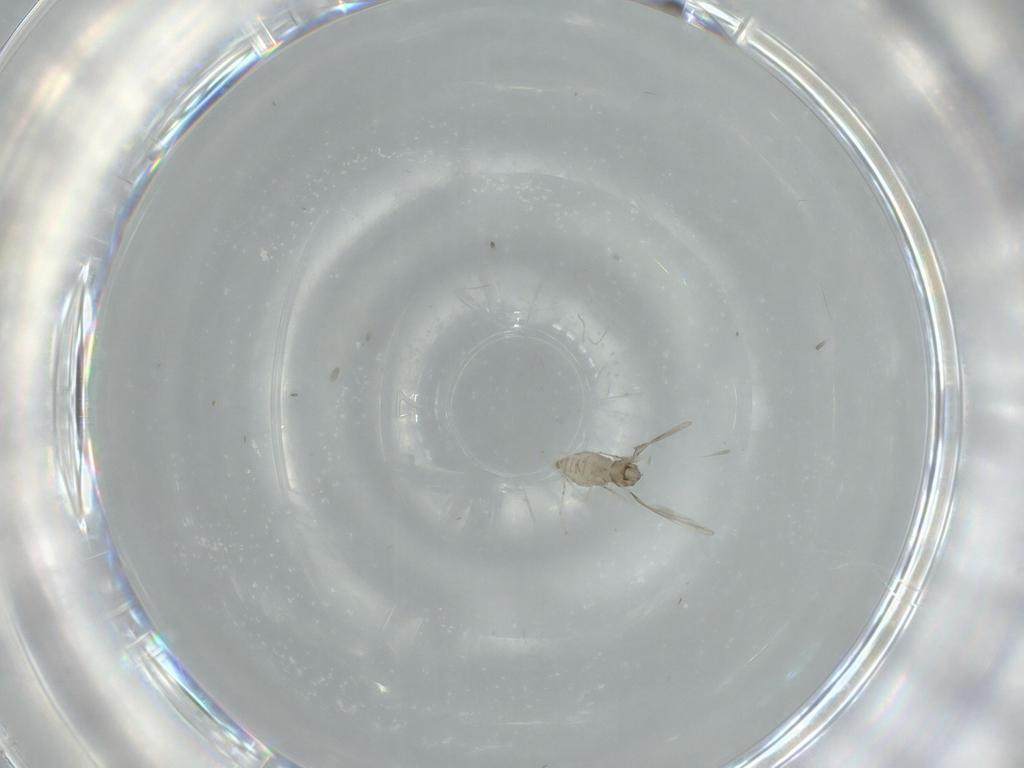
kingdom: Animalia
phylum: Arthropoda
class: Insecta
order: Diptera
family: Cecidomyiidae
